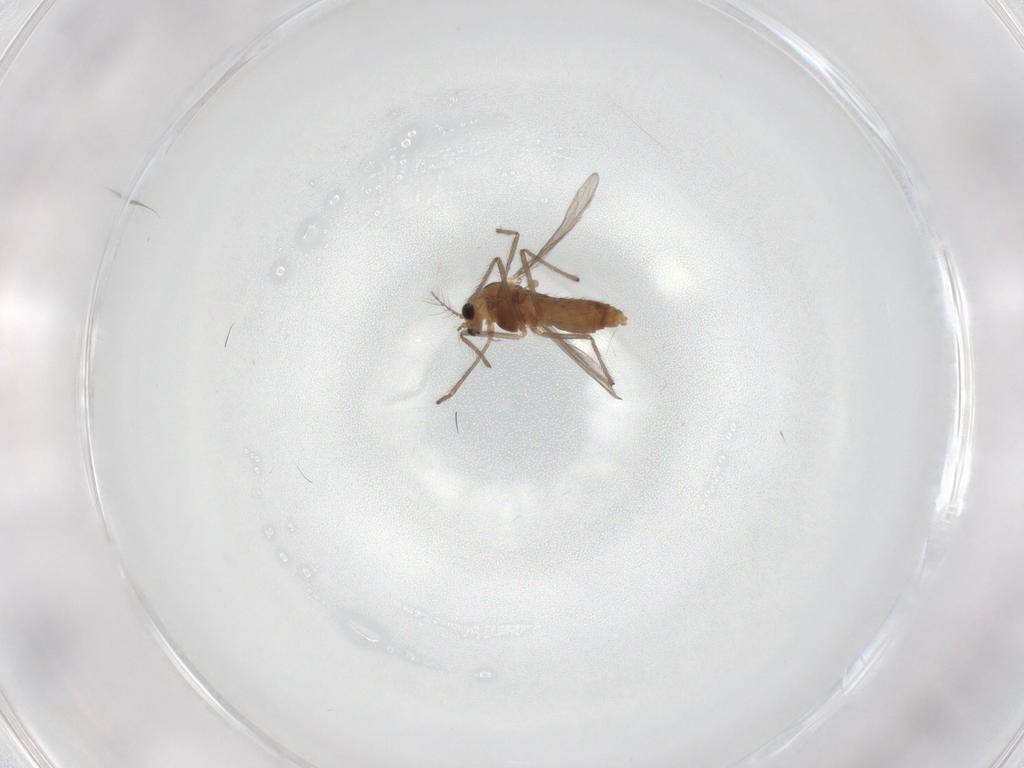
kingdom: Animalia
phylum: Arthropoda
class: Insecta
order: Diptera
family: Chironomidae
